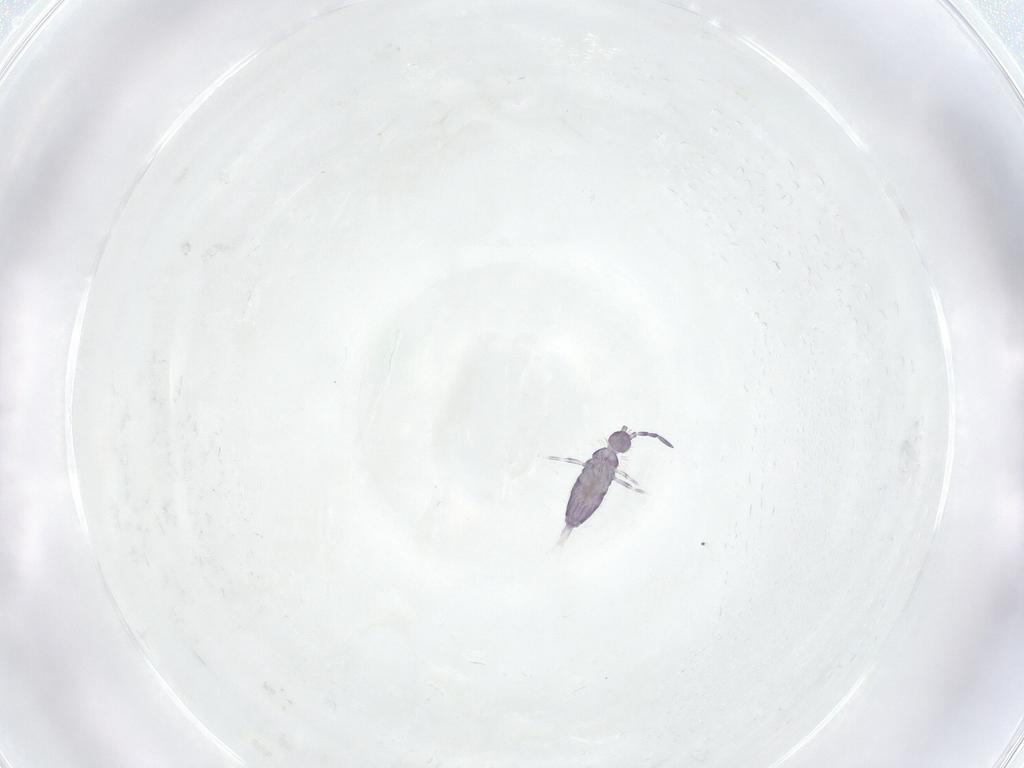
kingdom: Animalia
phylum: Arthropoda
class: Collembola
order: Entomobryomorpha
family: Entomobryidae
